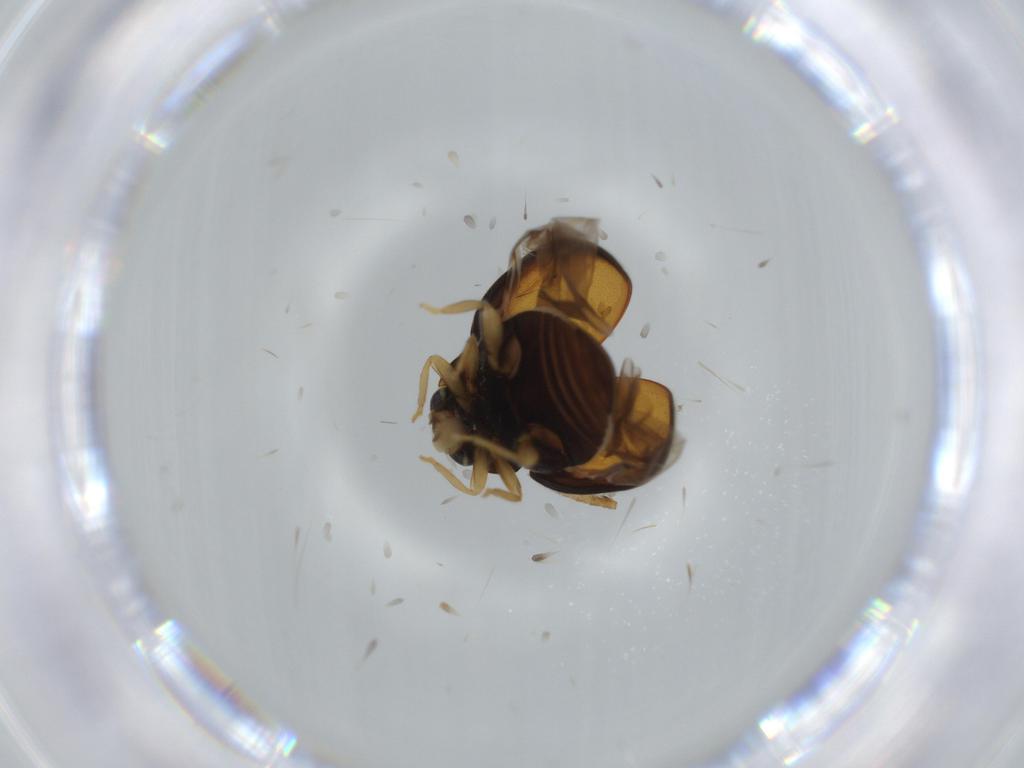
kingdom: Animalia
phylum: Arthropoda
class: Insecta
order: Coleoptera
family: Coccinellidae
